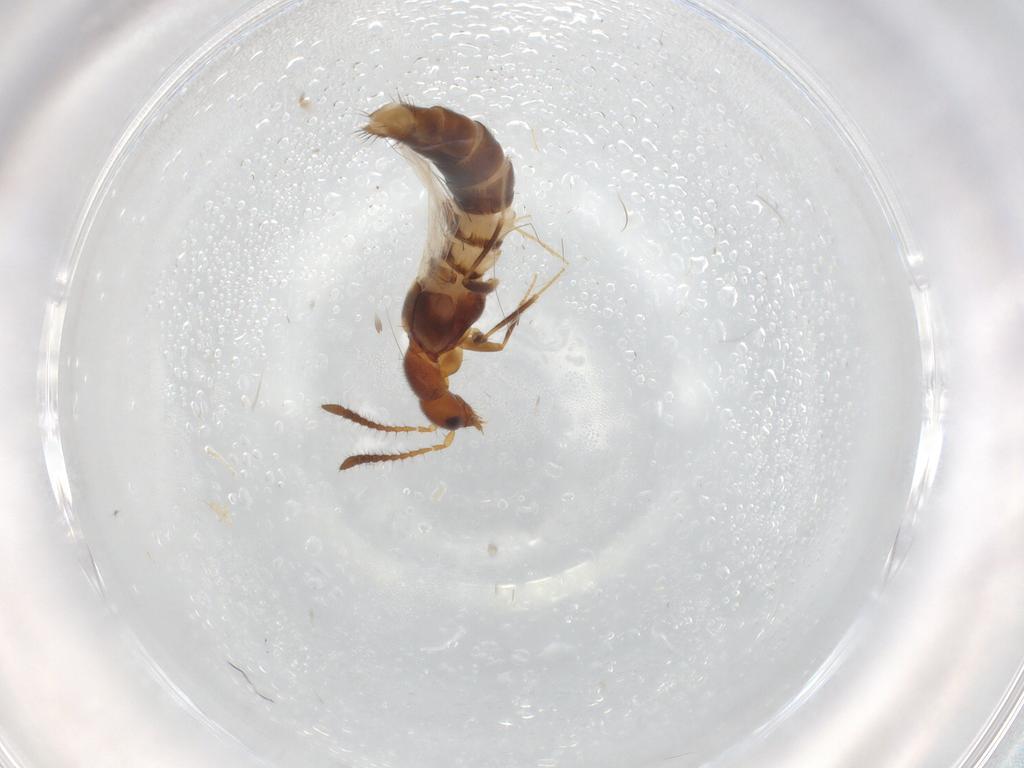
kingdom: Animalia
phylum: Arthropoda
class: Insecta
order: Coleoptera
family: Staphylinidae
